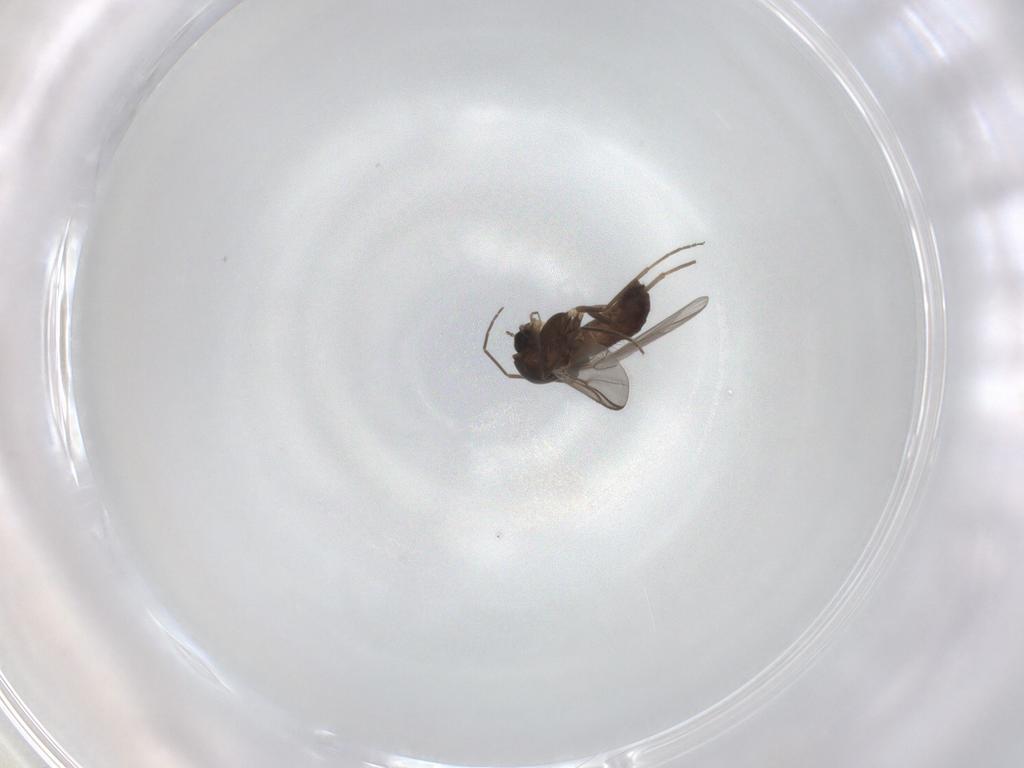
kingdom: Animalia
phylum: Arthropoda
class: Insecta
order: Diptera
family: Chironomidae
